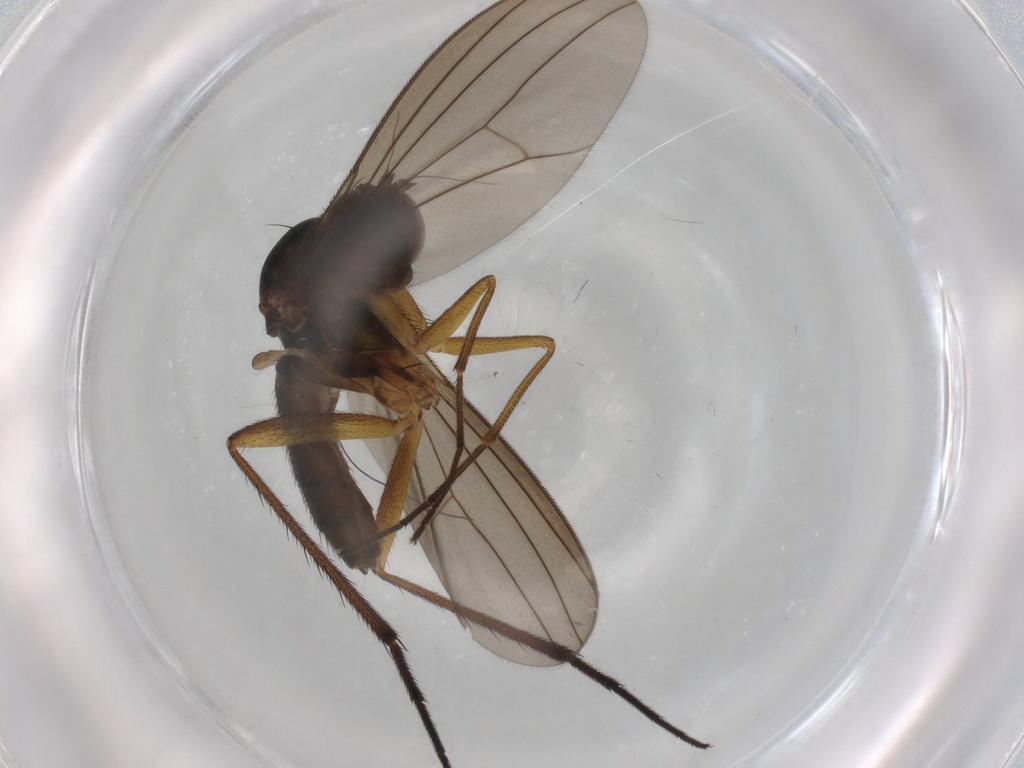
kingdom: Animalia
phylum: Arthropoda
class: Insecta
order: Diptera
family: Dolichopodidae
